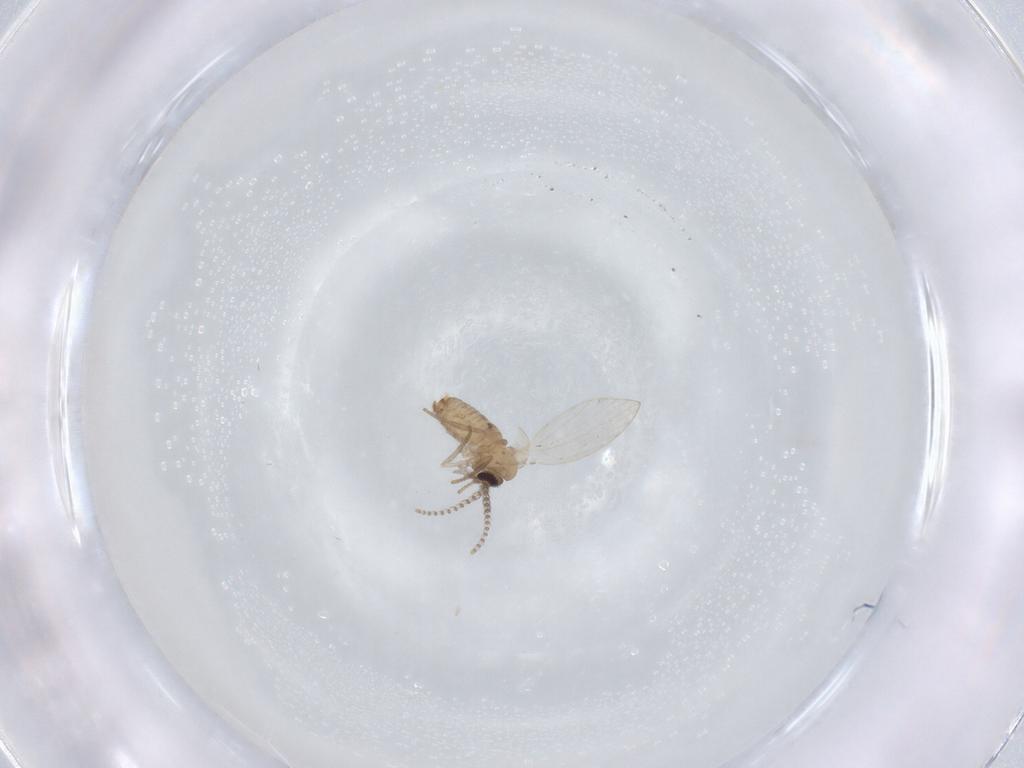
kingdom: Animalia
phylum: Arthropoda
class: Insecta
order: Diptera
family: Psychodidae
